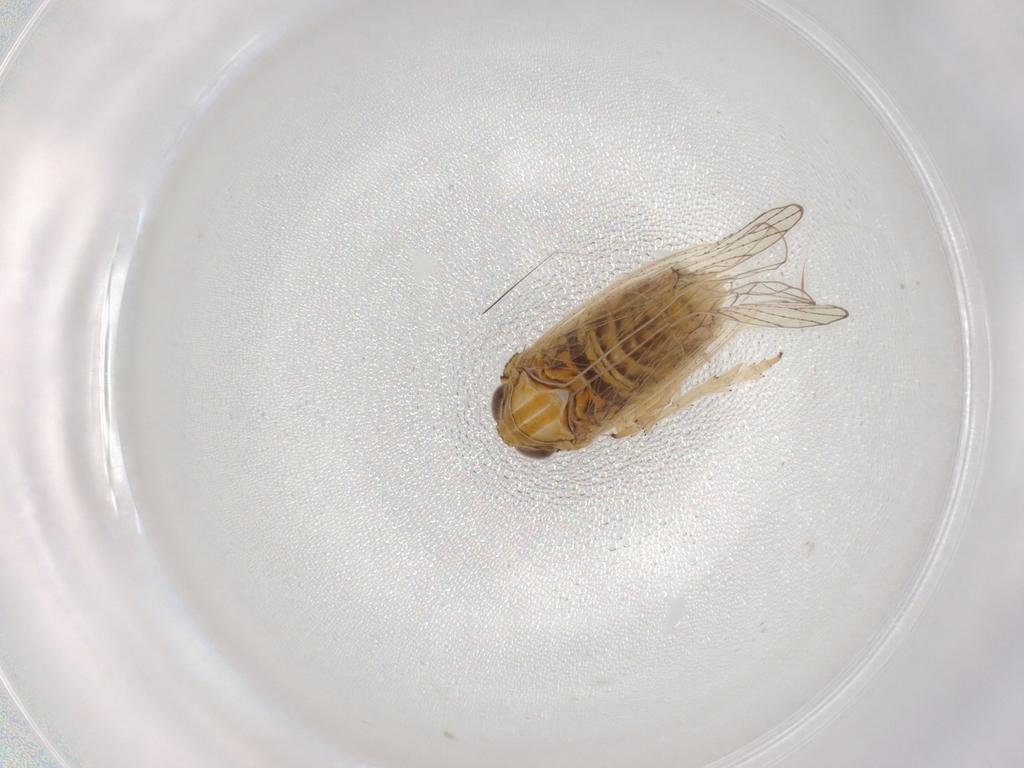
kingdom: Animalia
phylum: Arthropoda
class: Insecta
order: Hemiptera
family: Lygaeidae
